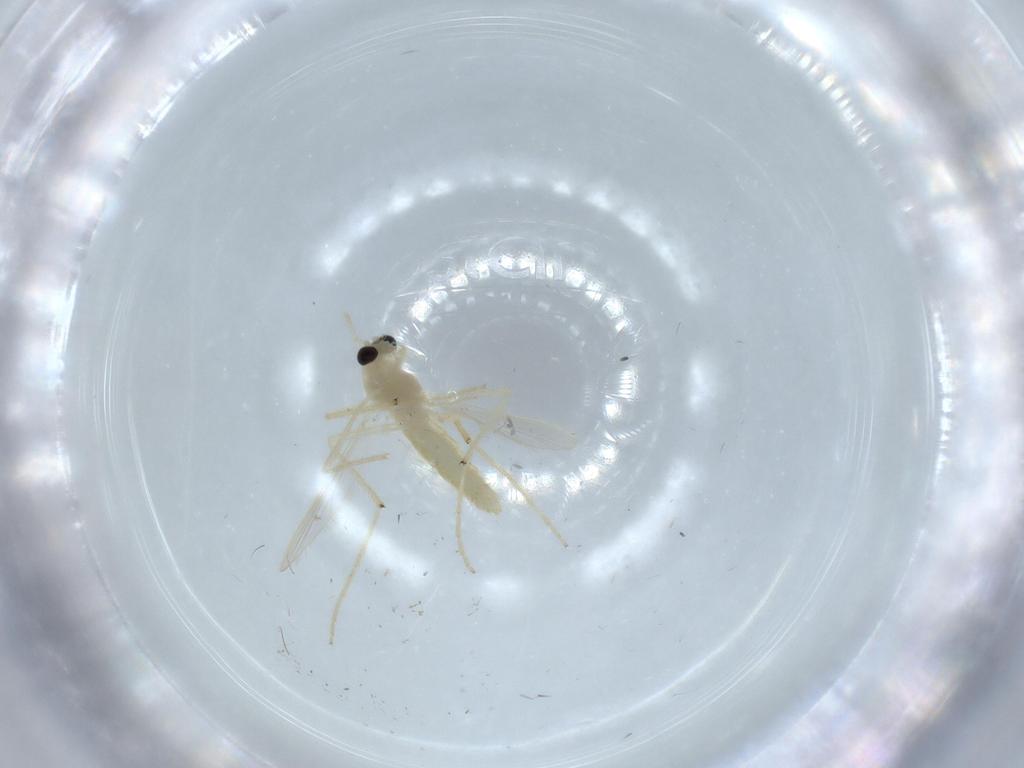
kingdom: Animalia
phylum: Arthropoda
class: Insecta
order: Diptera
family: Chironomidae
